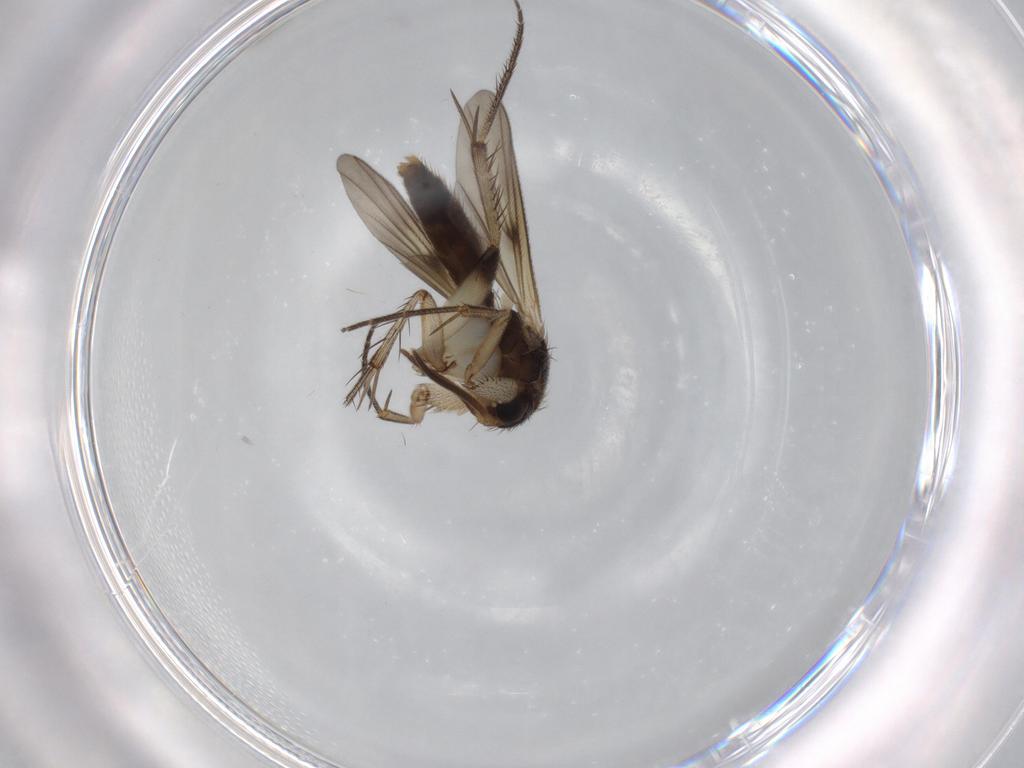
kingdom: Animalia
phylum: Arthropoda
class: Insecta
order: Diptera
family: Mycetophilidae
